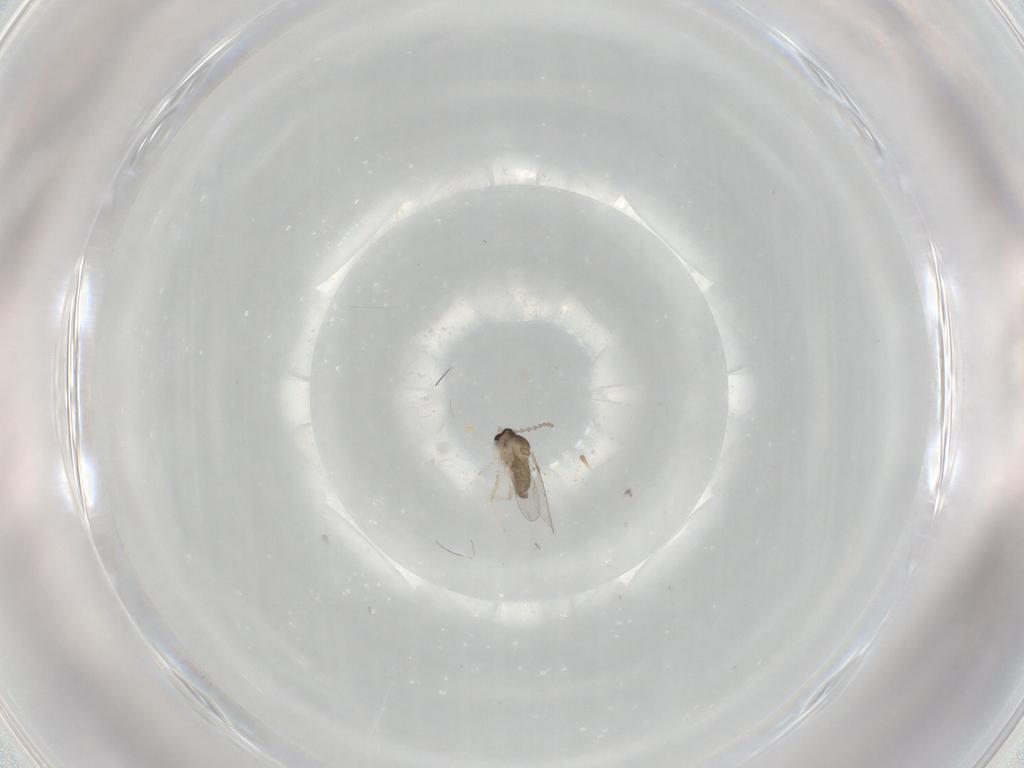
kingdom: Animalia
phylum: Arthropoda
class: Insecta
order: Diptera
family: Cecidomyiidae
